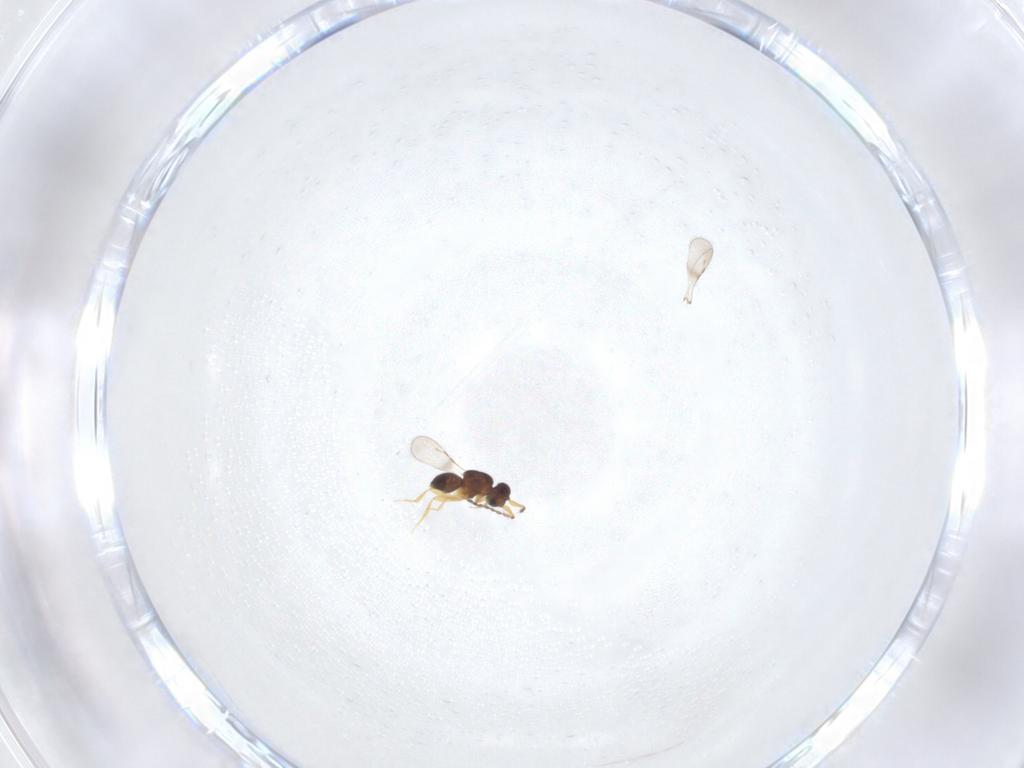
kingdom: Animalia
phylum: Arthropoda
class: Insecta
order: Hymenoptera
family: Ceraphronidae
